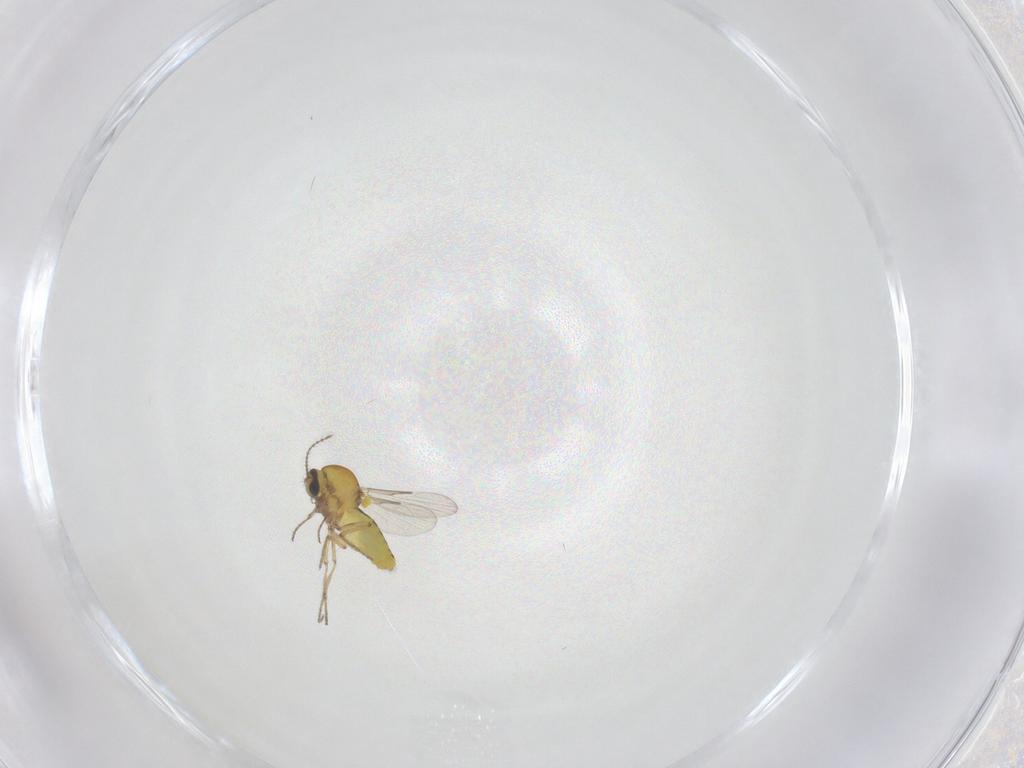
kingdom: Animalia
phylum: Arthropoda
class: Insecta
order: Diptera
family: Ceratopogonidae
